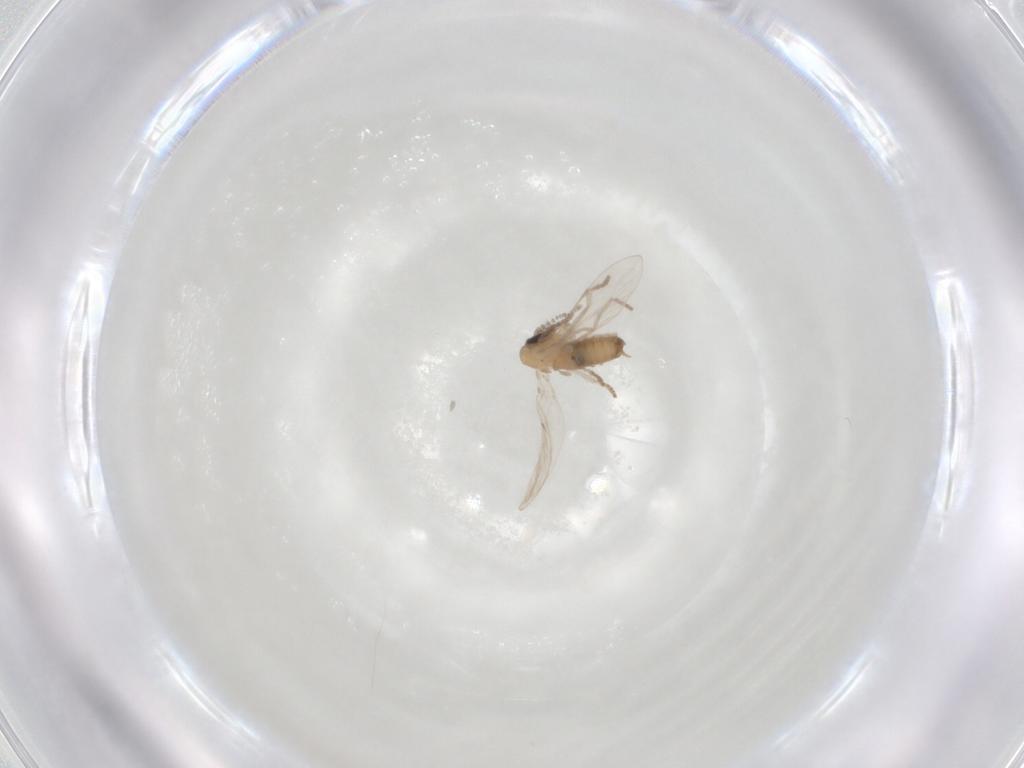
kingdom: Animalia
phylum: Arthropoda
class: Insecta
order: Diptera
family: Psychodidae
